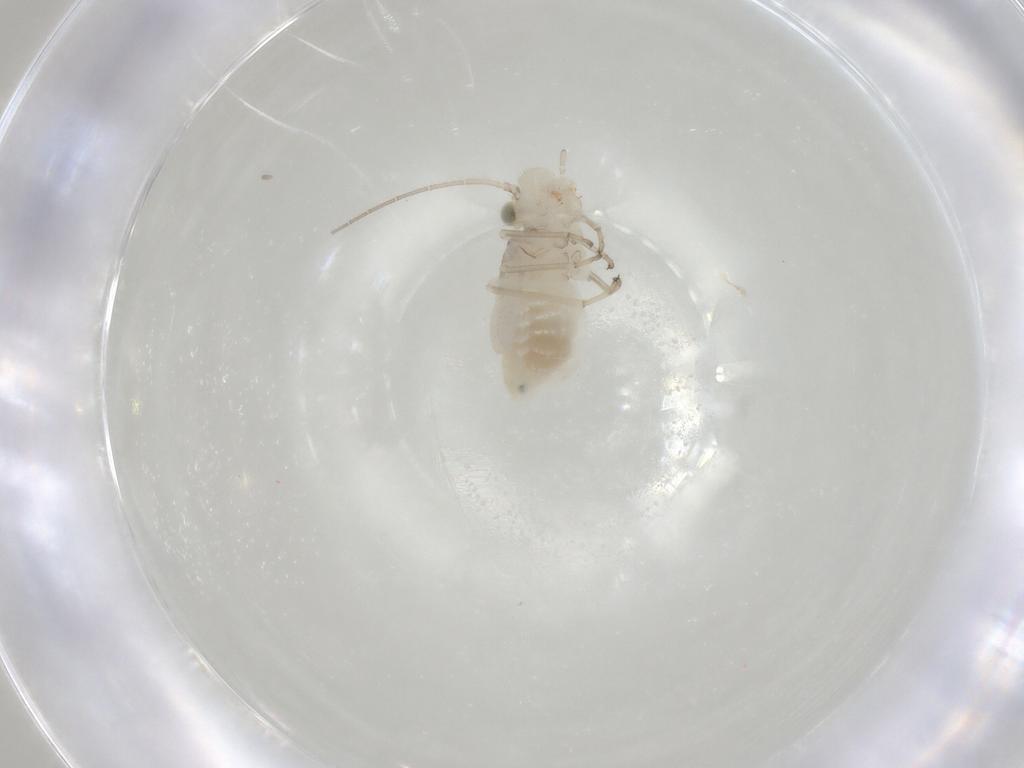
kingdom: Animalia
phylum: Arthropoda
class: Insecta
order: Psocodea
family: Caeciliusidae
